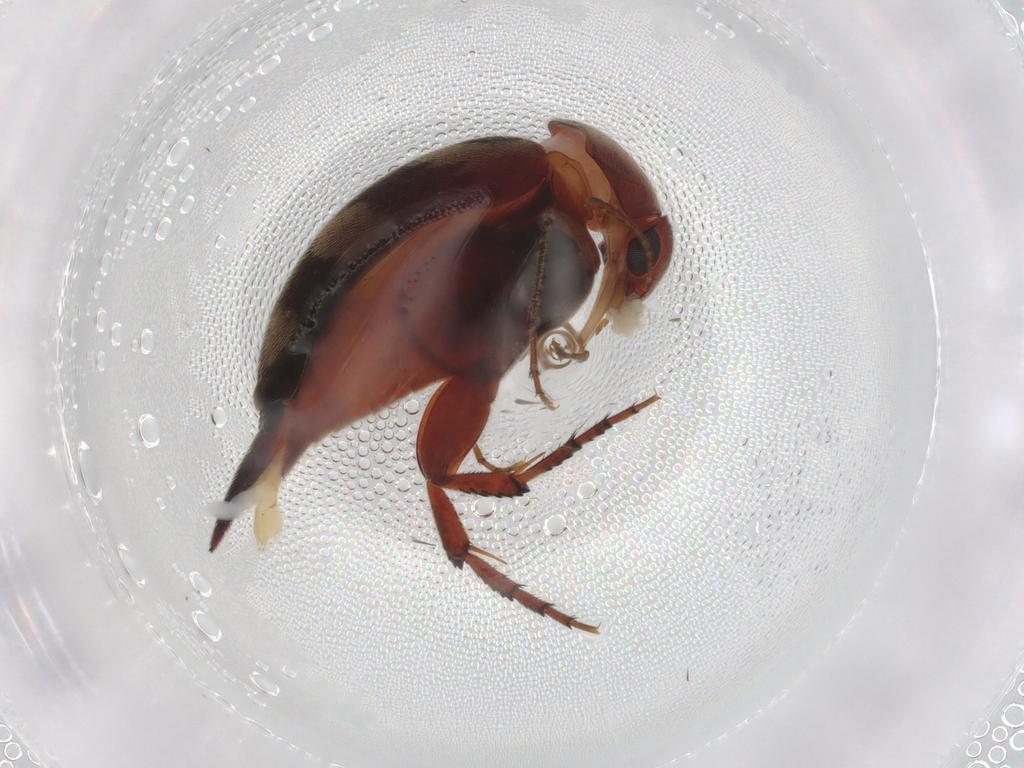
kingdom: Animalia
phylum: Arthropoda
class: Insecta
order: Coleoptera
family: Mordellidae
